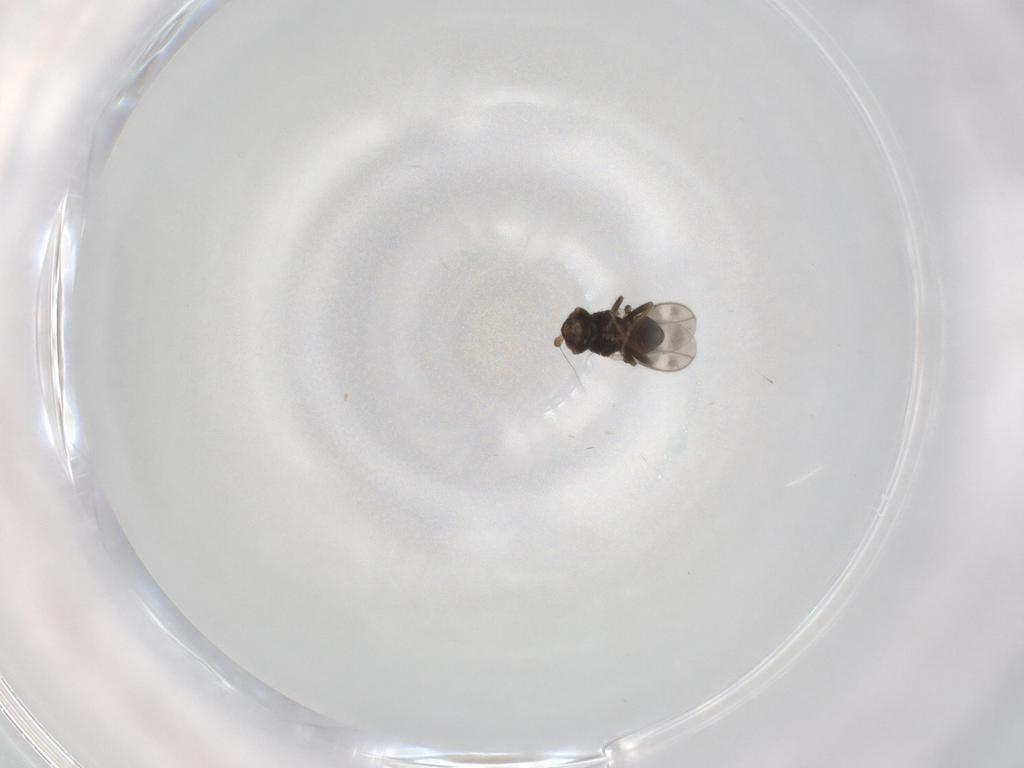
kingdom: Animalia
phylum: Arthropoda
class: Insecta
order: Diptera
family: Sphaeroceridae
